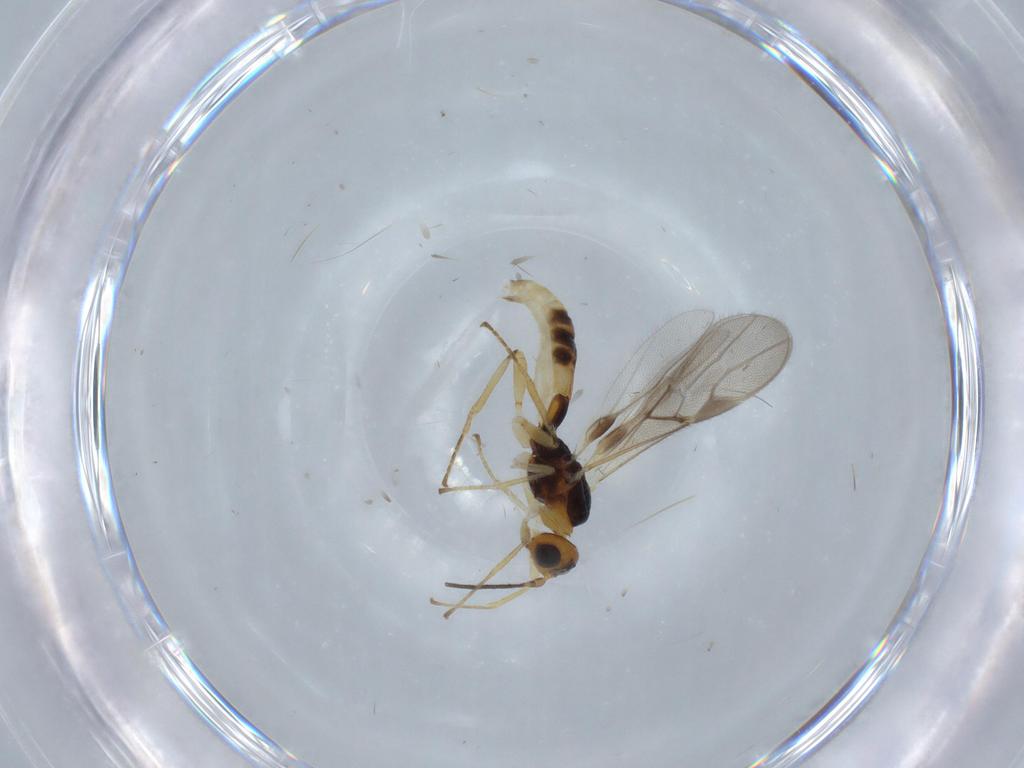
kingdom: Animalia
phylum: Arthropoda
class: Insecta
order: Hymenoptera
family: Braconidae
